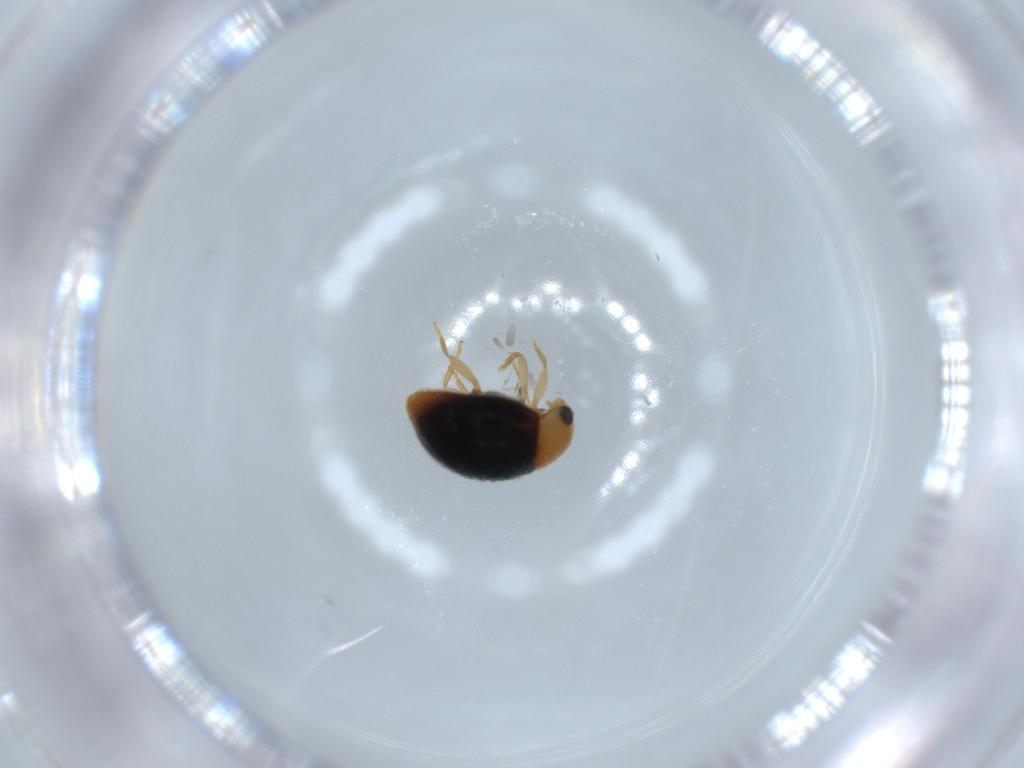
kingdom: Animalia
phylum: Arthropoda
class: Insecta
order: Coleoptera
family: Coccinellidae
